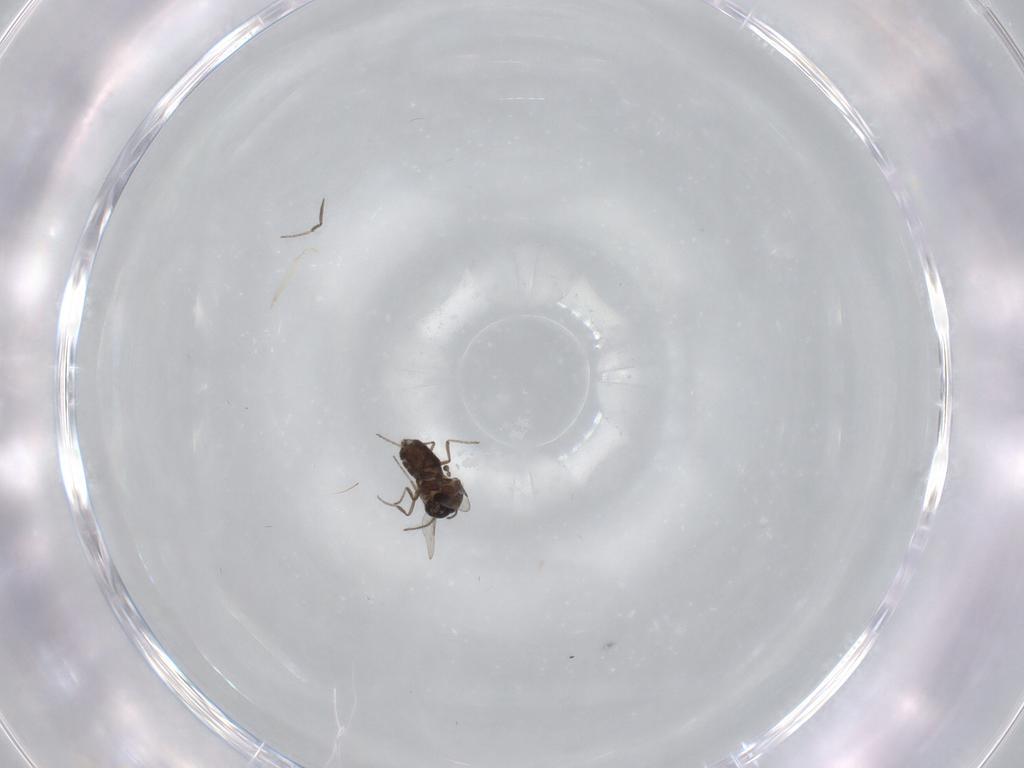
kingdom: Animalia
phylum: Arthropoda
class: Insecta
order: Diptera
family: Ceratopogonidae
